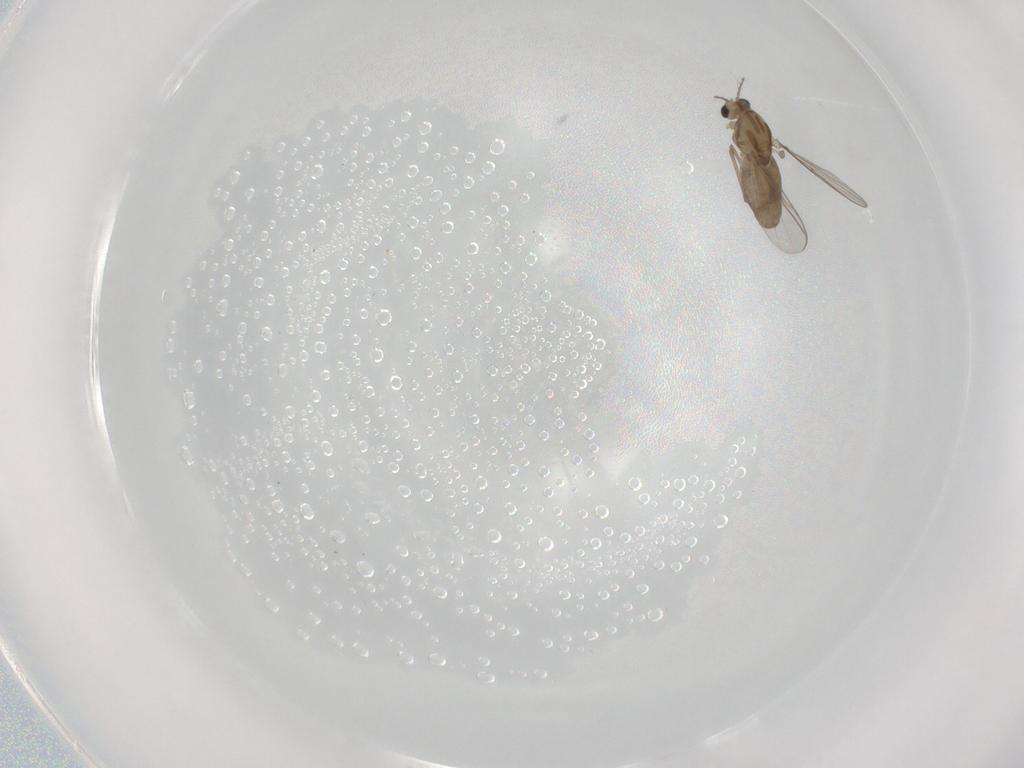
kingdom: Animalia
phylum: Arthropoda
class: Insecta
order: Diptera
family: Chironomidae
